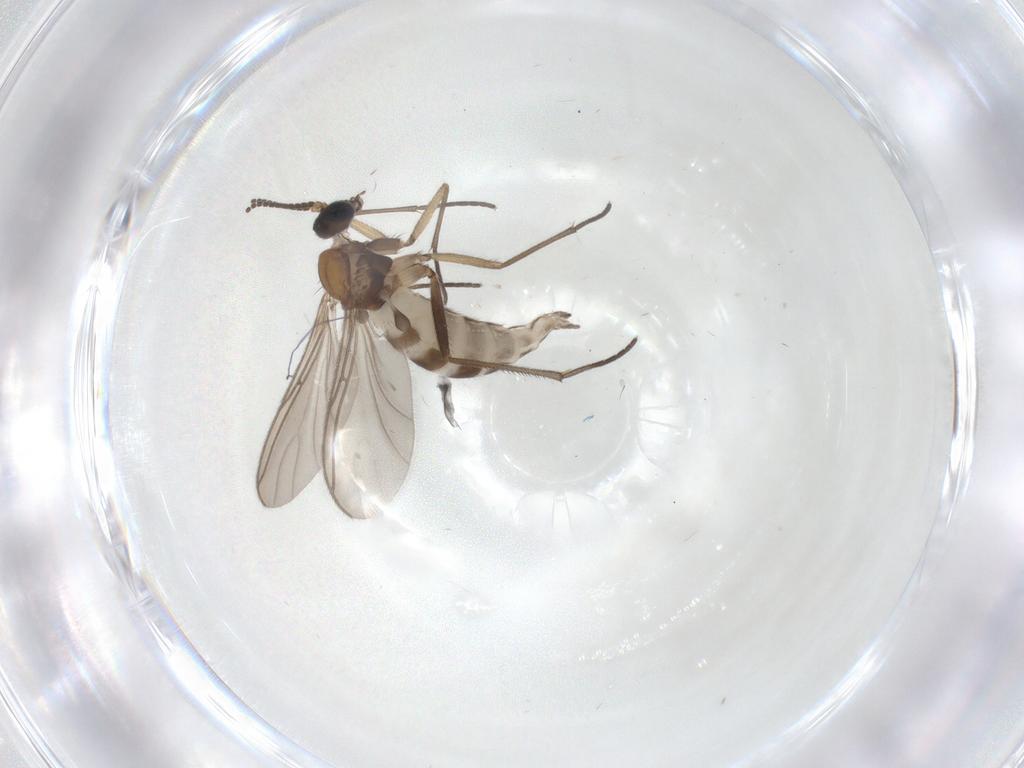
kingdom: Animalia
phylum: Arthropoda
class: Insecta
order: Diptera
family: Sciaridae
